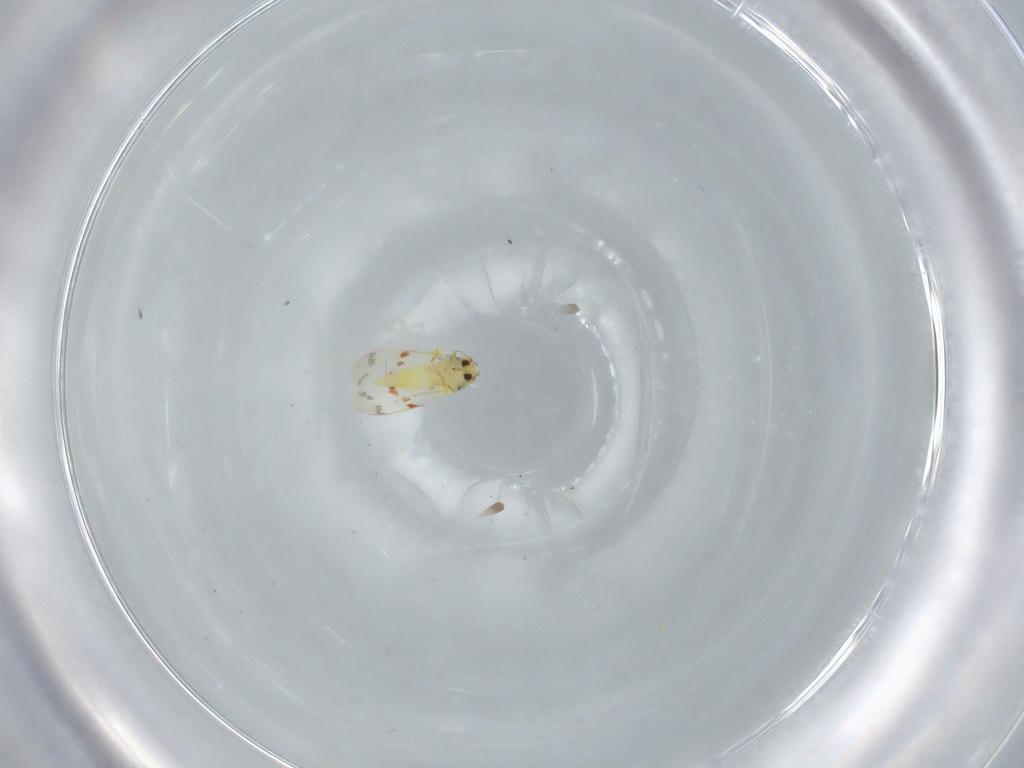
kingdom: Animalia
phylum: Arthropoda
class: Insecta
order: Hemiptera
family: Aleyrodidae
